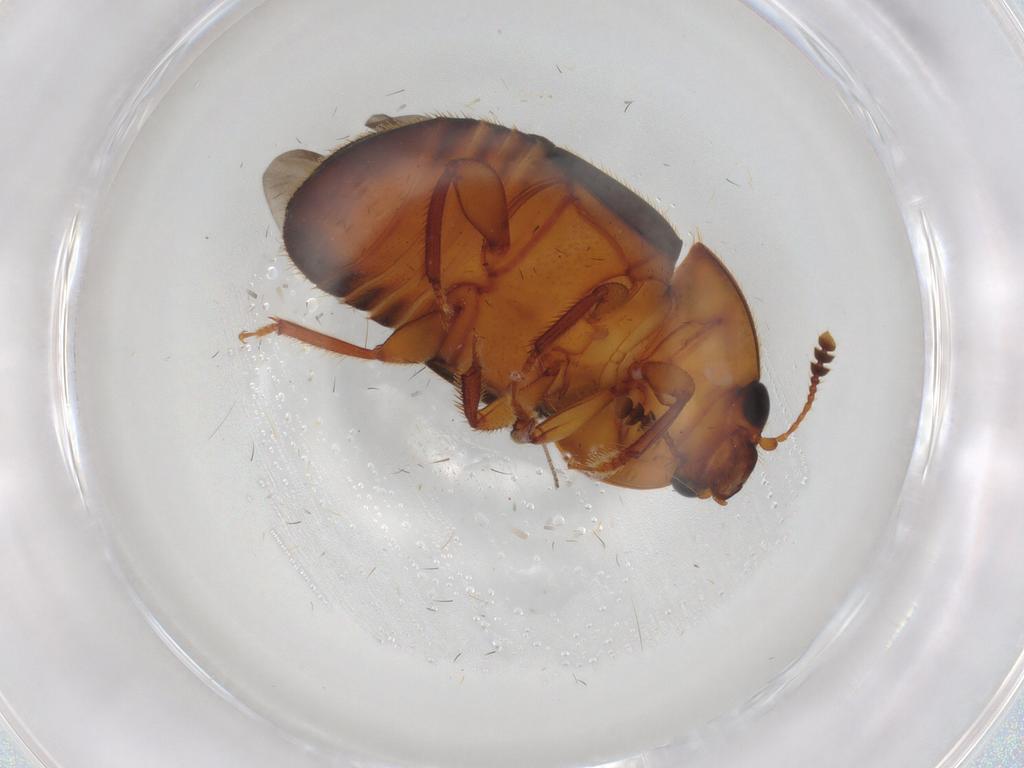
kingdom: Animalia
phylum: Arthropoda
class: Insecta
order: Coleoptera
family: Nitidulidae
